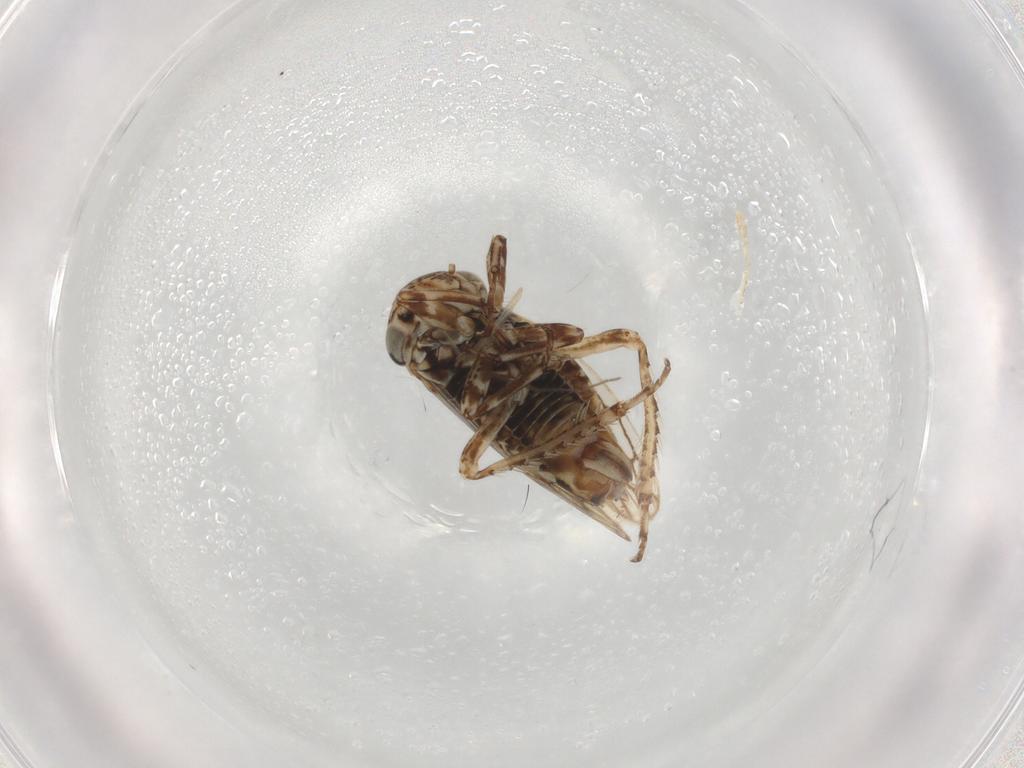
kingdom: Animalia
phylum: Arthropoda
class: Insecta
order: Hemiptera
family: Cicadellidae
